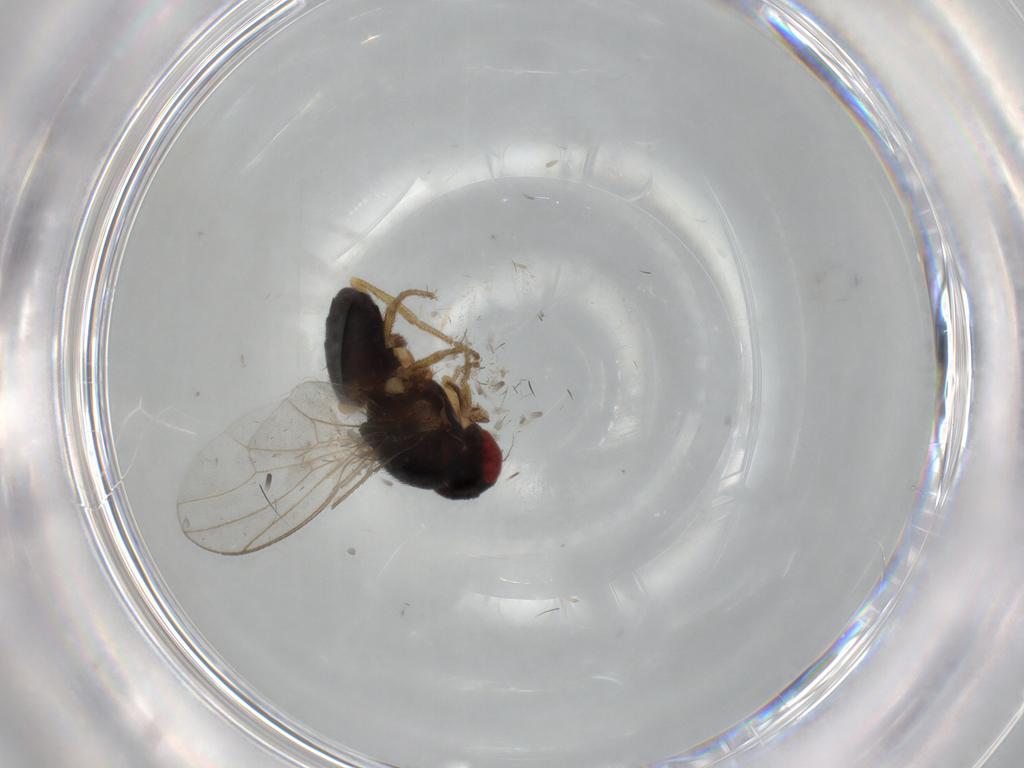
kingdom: Animalia
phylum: Arthropoda
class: Insecta
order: Diptera
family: Drosophilidae
